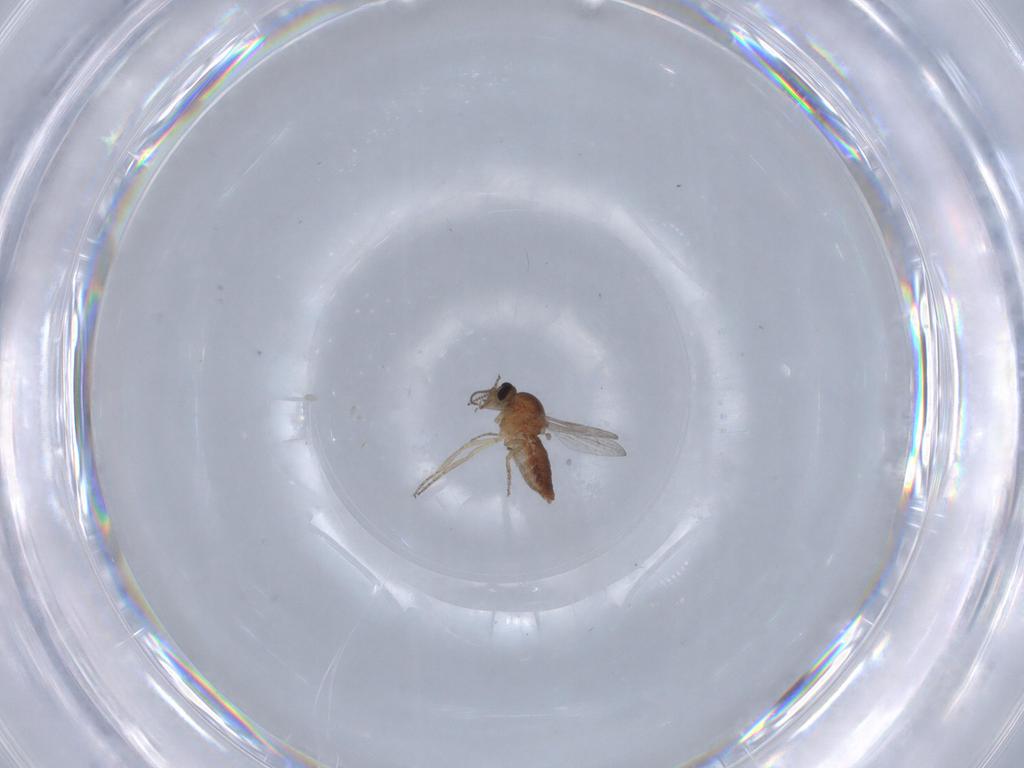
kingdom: Animalia
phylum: Arthropoda
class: Insecta
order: Diptera
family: Ceratopogonidae
